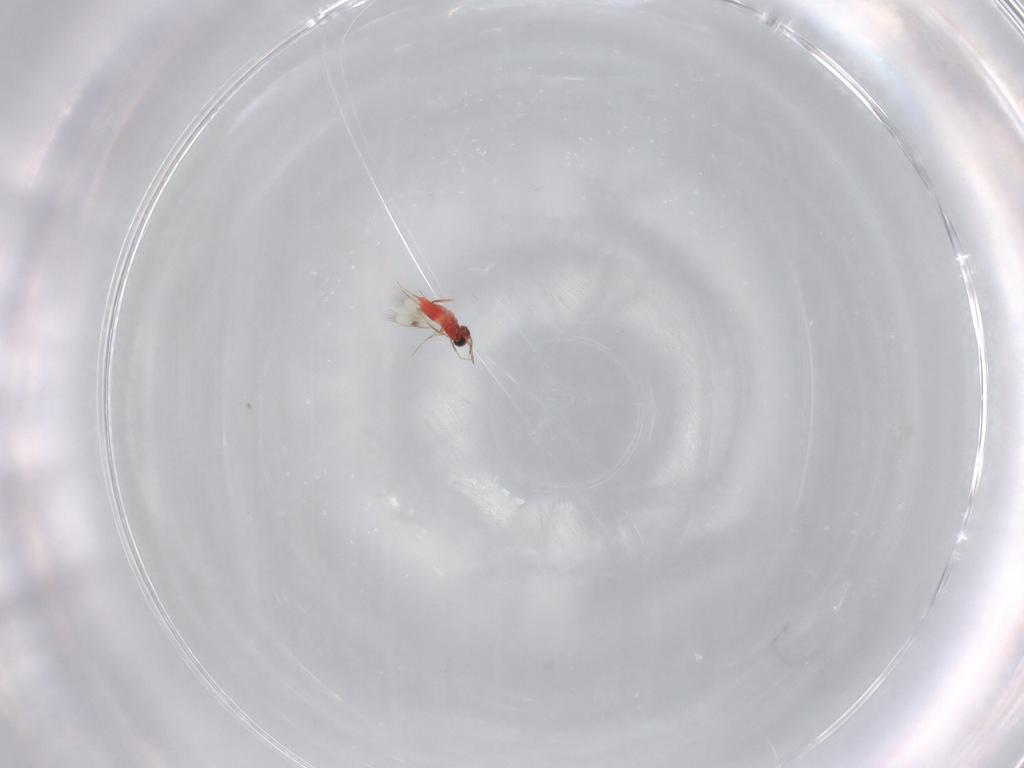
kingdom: Animalia
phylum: Arthropoda
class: Insecta
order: Hymenoptera
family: Trichogrammatidae
